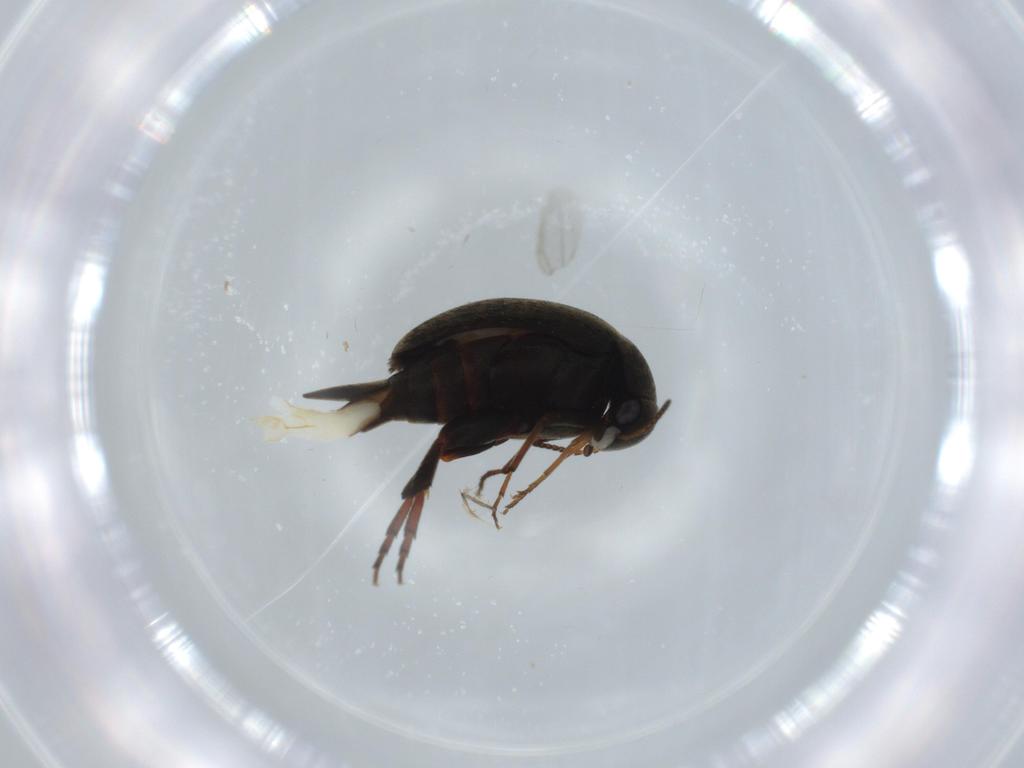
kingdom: Animalia
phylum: Arthropoda
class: Insecta
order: Coleoptera
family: Mordellidae
